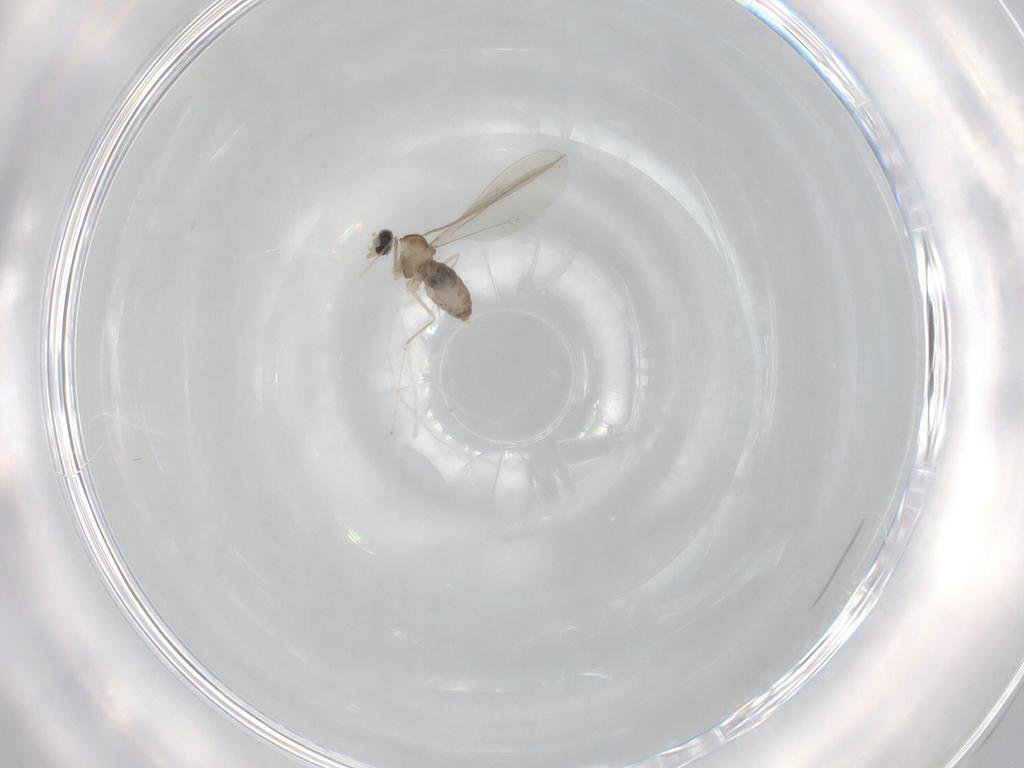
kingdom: Animalia
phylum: Arthropoda
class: Insecta
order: Diptera
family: Cecidomyiidae
